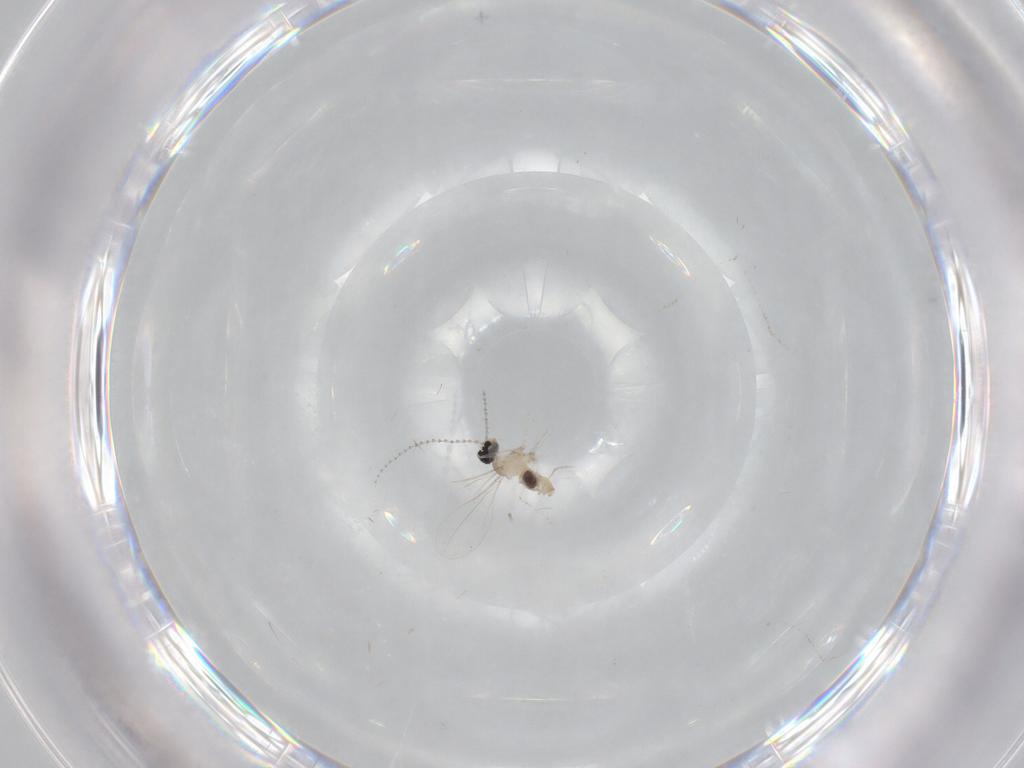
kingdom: Animalia
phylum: Arthropoda
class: Insecta
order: Diptera
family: Cecidomyiidae
